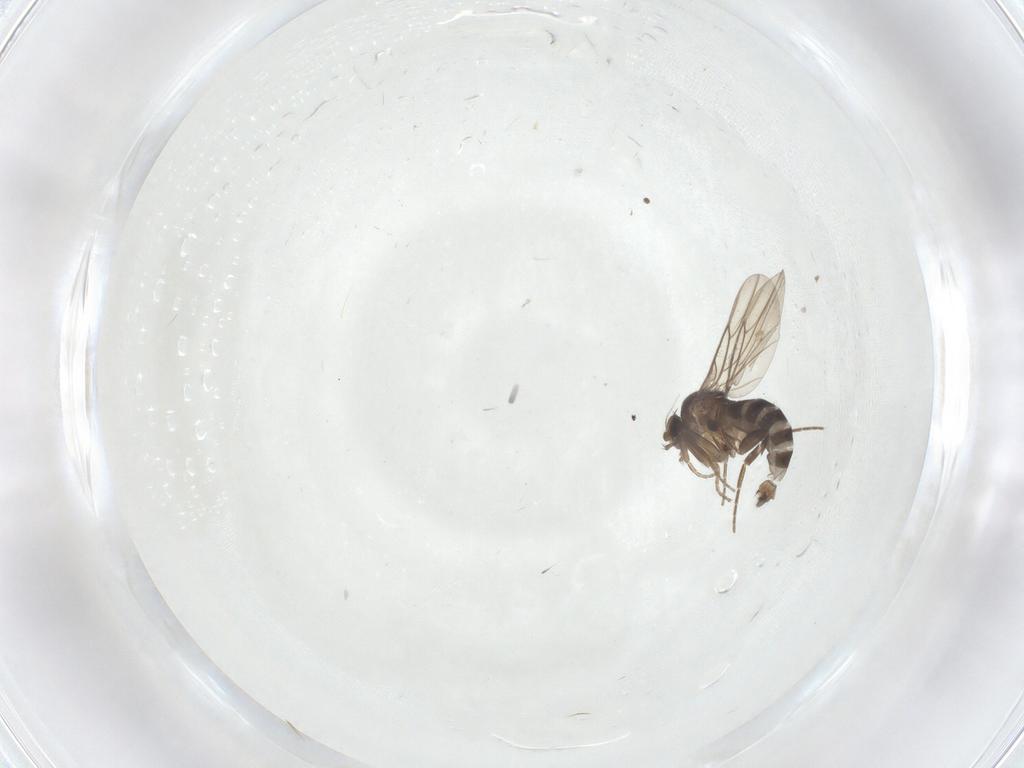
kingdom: Animalia
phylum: Arthropoda
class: Insecta
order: Diptera
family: Phoridae
